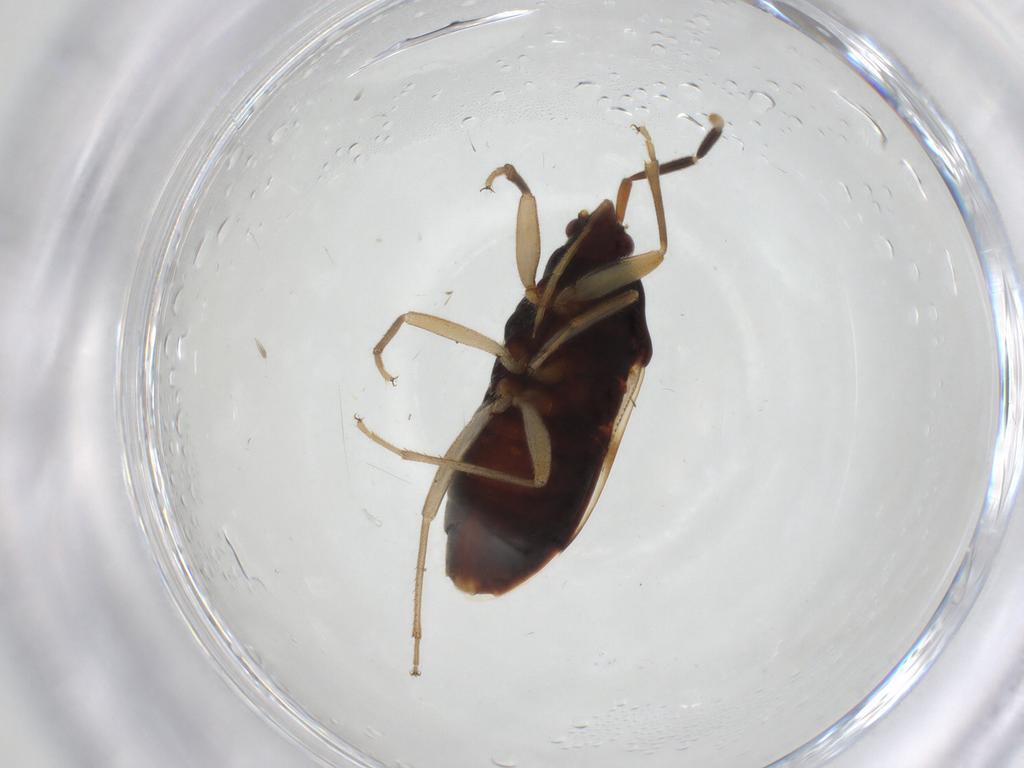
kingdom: Animalia
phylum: Arthropoda
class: Insecta
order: Hemiptera
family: Rhyparochromidae
